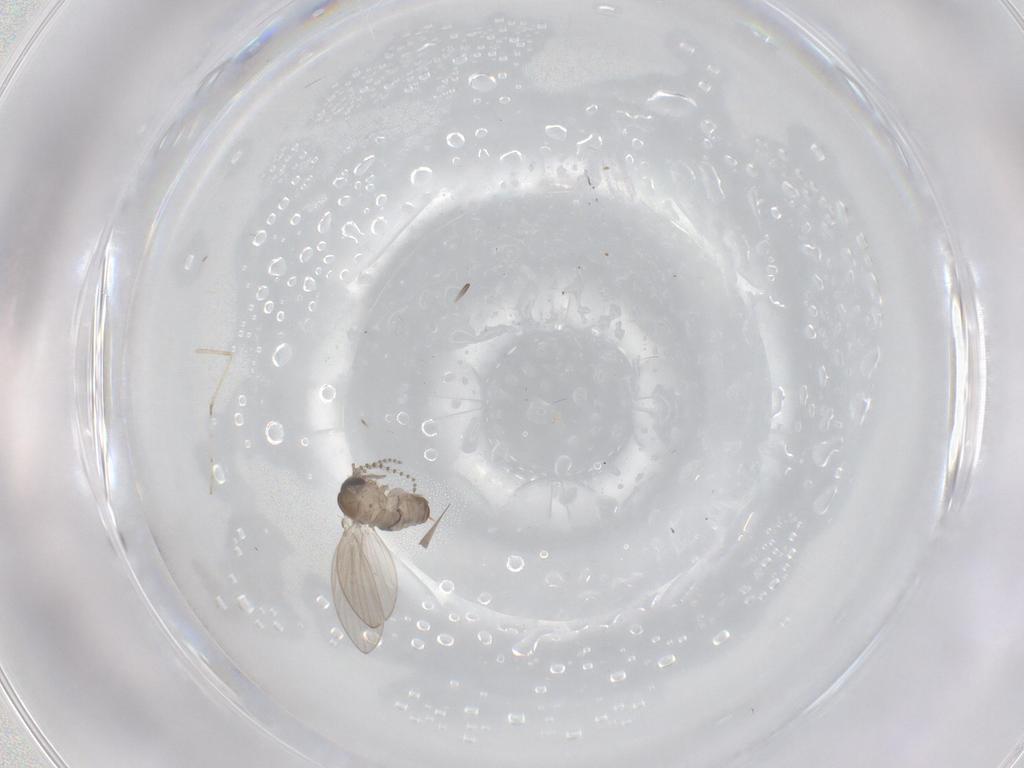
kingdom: Animalia
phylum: Arthropoda
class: Insecta
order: Diptera
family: Psychodidae
